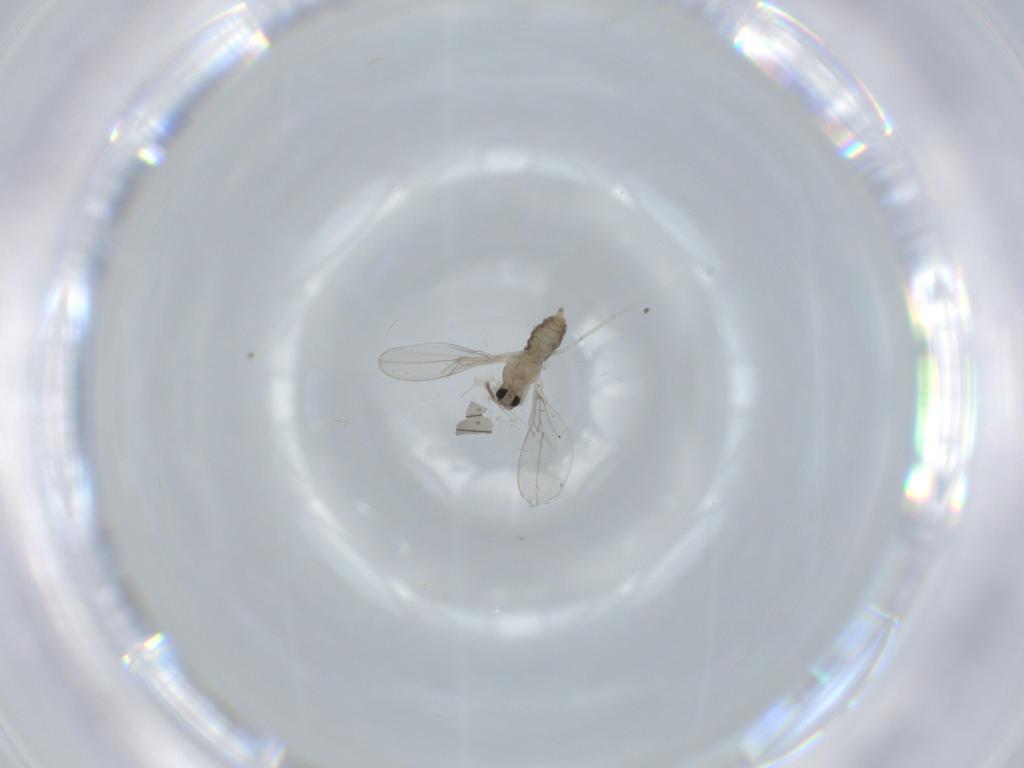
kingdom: Animalia
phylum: Arthropoda
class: Insecta
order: Diptera
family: Cecidomyiidae
